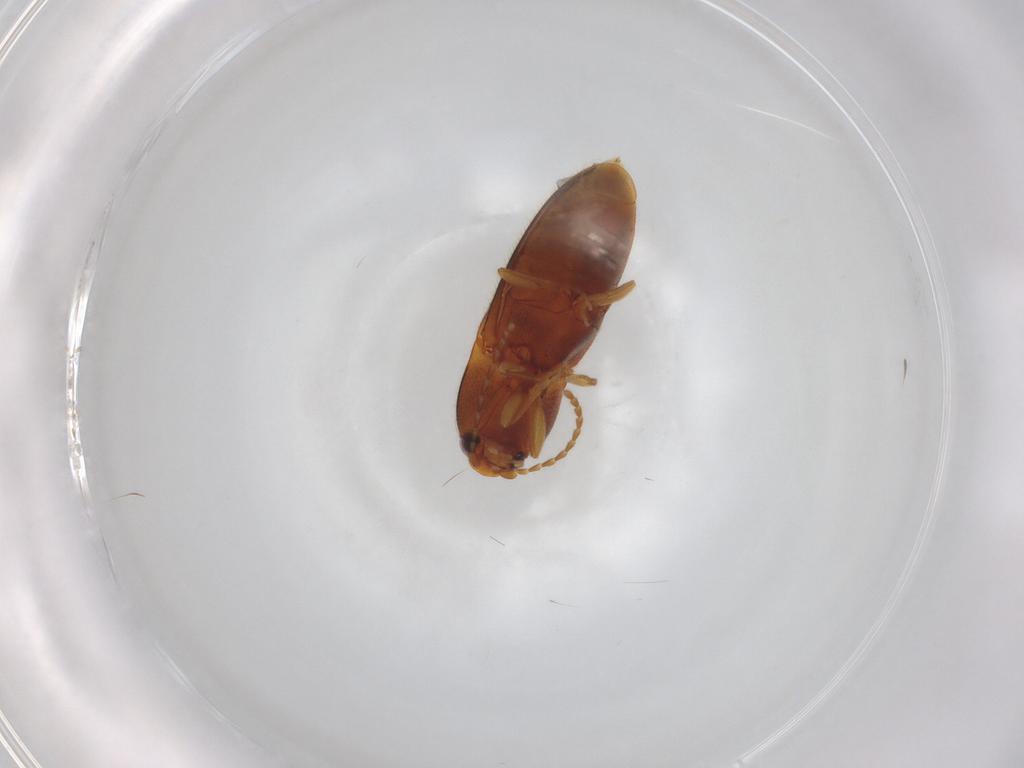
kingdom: Animalia
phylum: Arthropoda
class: Insecta
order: Coleoptera
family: Elateridae
